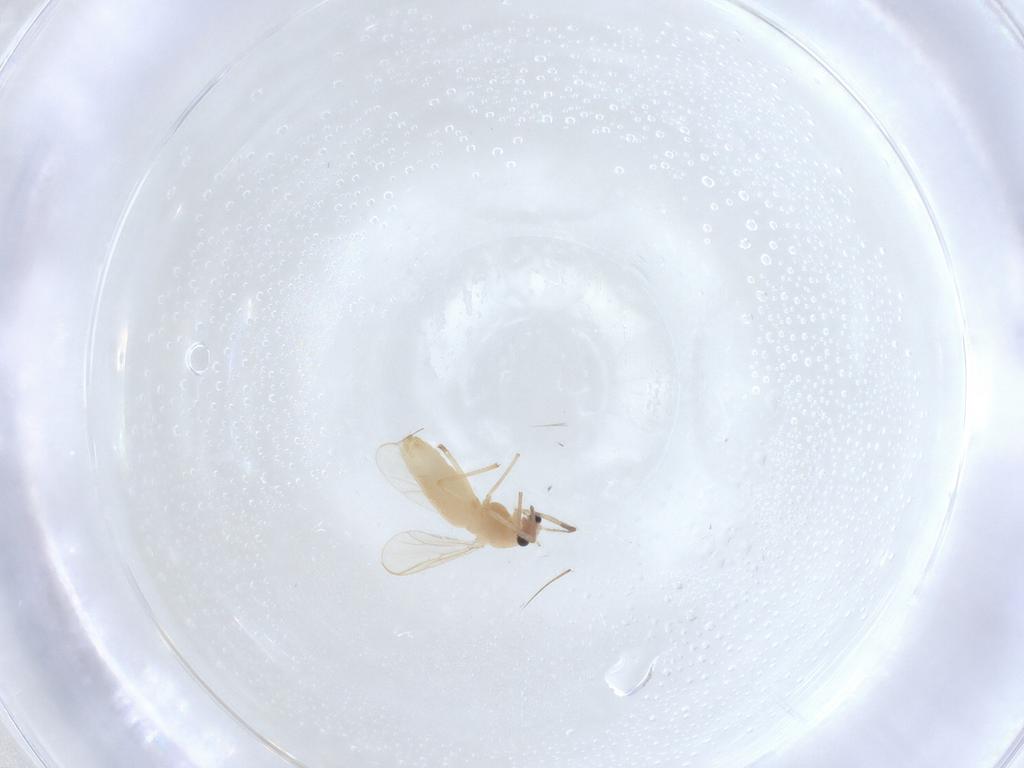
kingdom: Animalia
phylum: Arthropoda
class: Insecta
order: Diptera
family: Chironomidae
